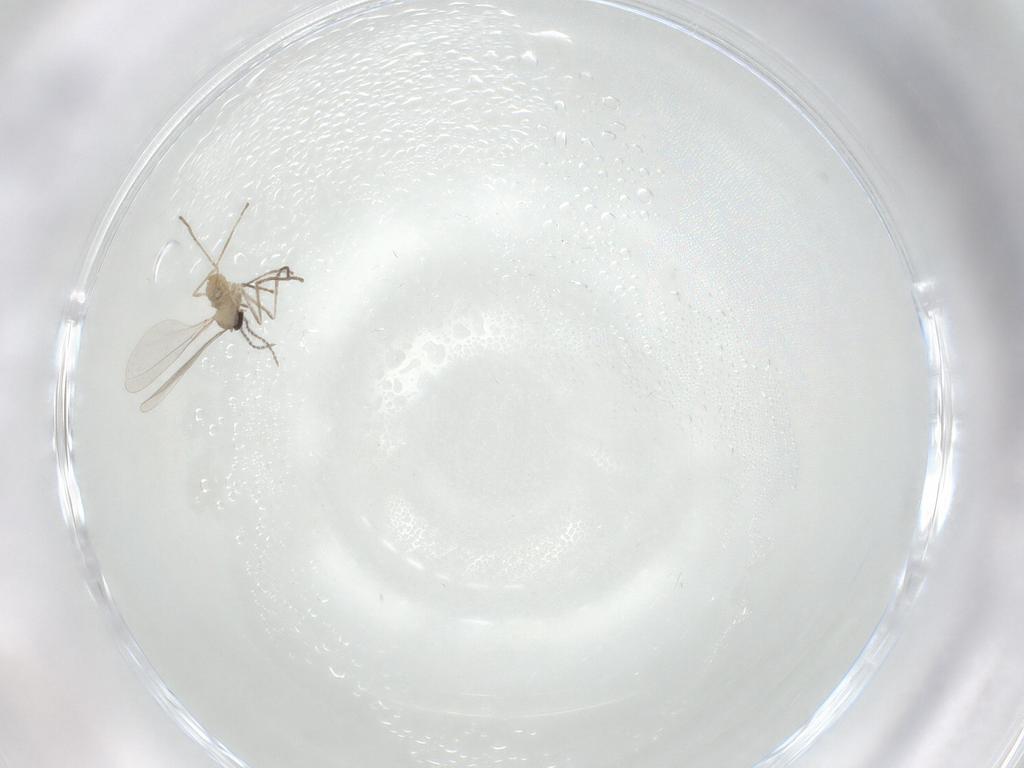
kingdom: Animalia
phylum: Arthropoda
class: Insecta
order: Diptera
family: Cecidomyiidae
